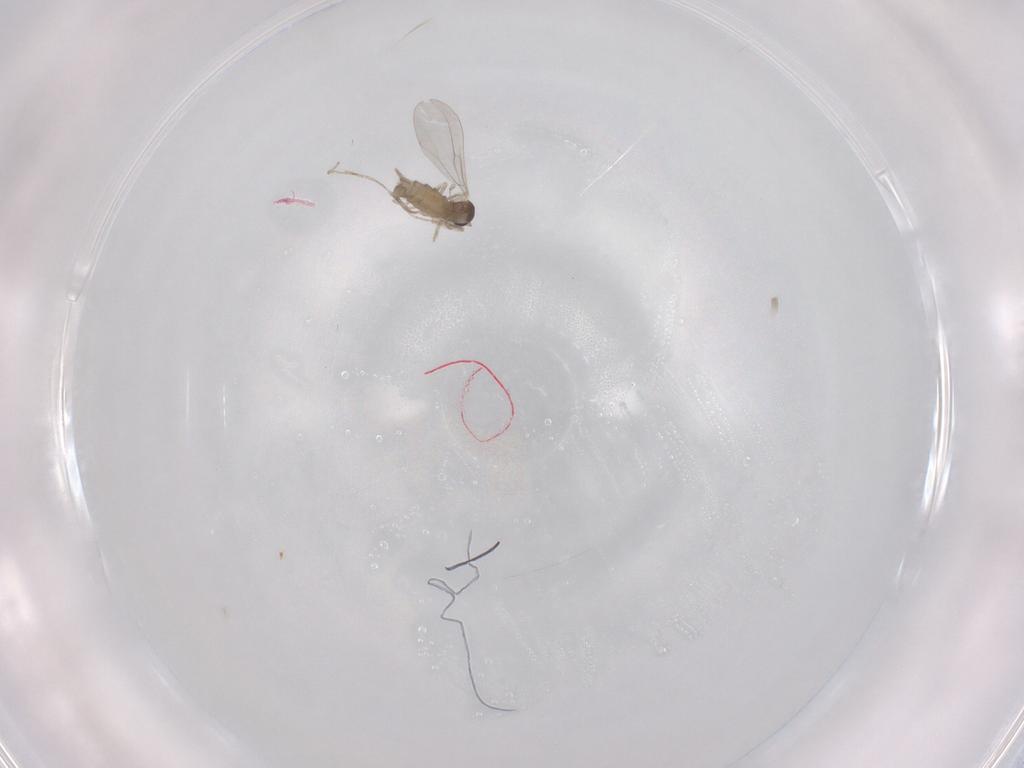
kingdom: Animalia
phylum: Arthropoda
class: Insecta
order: Diptera
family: Cecidomyiidae
